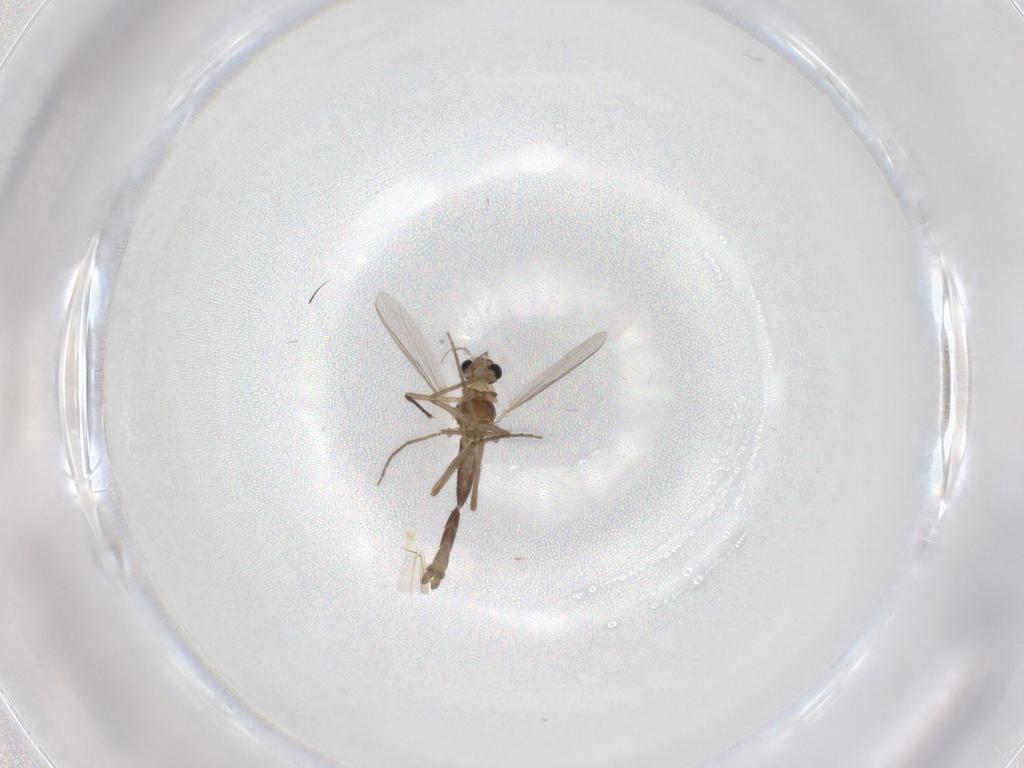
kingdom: Animalia
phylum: Arthropoda
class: Insecta
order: Diptera
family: Chironomidae
